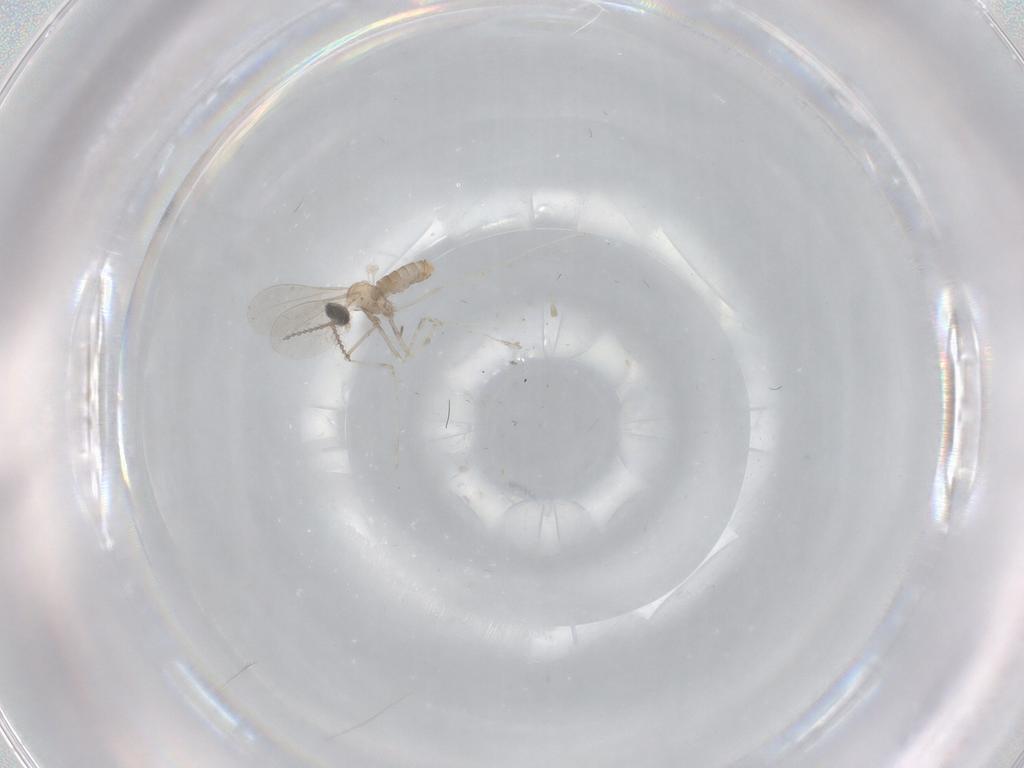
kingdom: Animalia
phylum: Arthropoda
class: Insecta
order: Diptera
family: Cecidomyiidae
